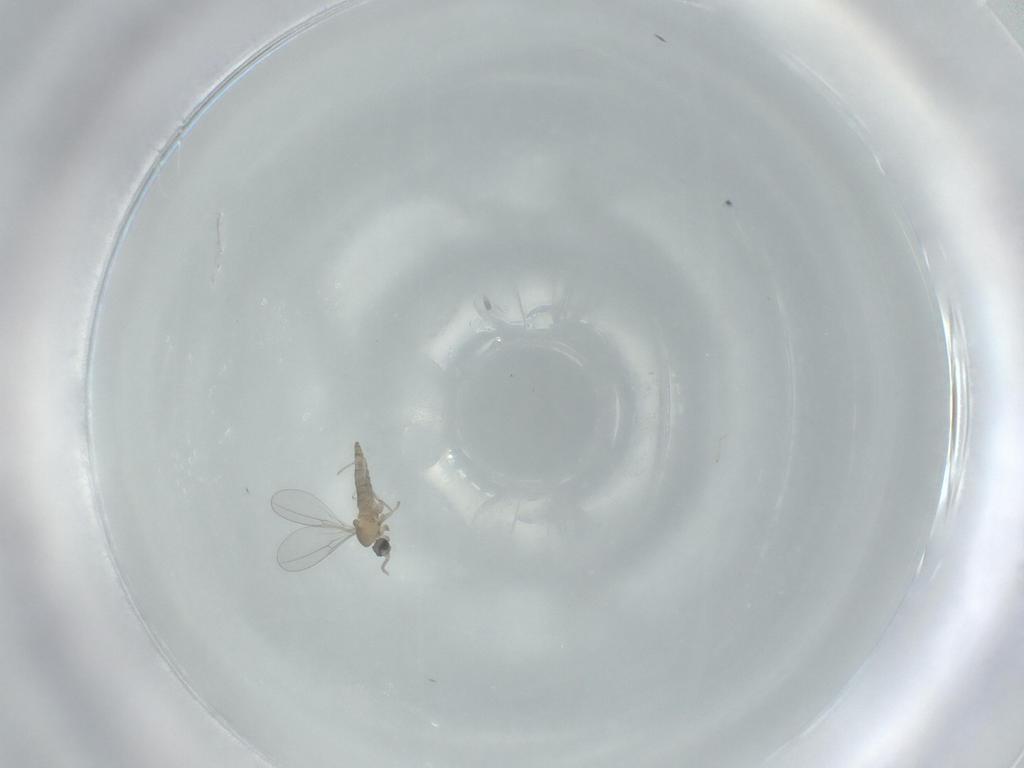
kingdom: Animalia
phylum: Arthropoda
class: Insecta
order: Diptera
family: Cecidomyiidae
